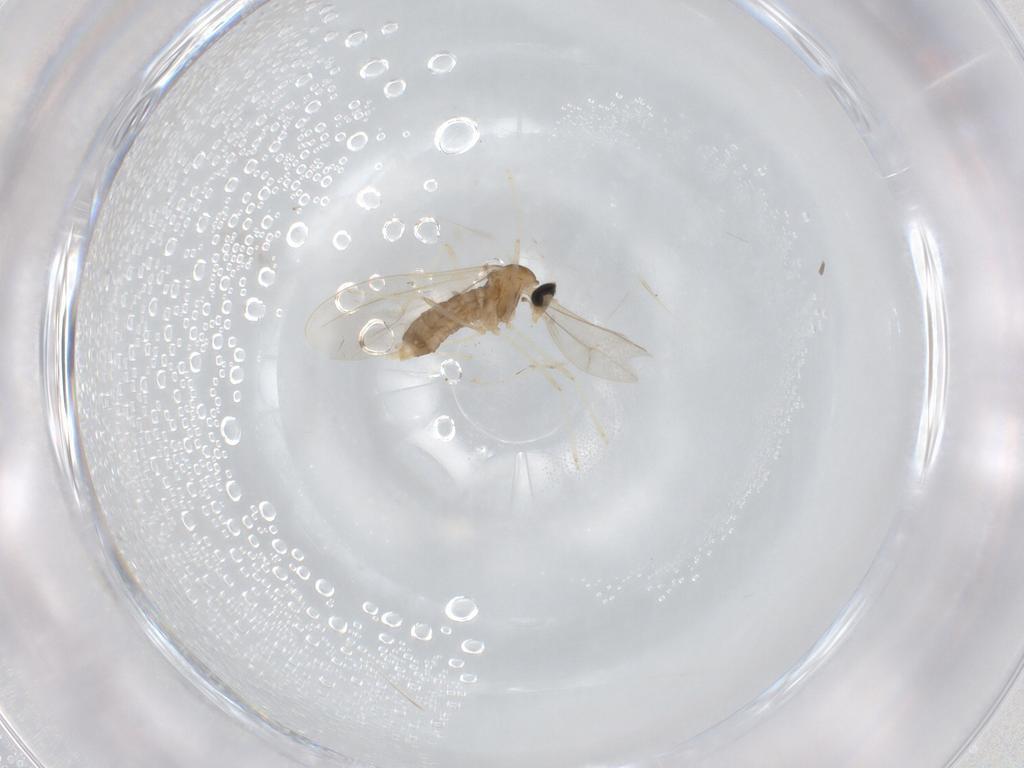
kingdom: Animalia
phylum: Arthropoda
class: Insecta
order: Diptera
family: Cecidomyiidae
